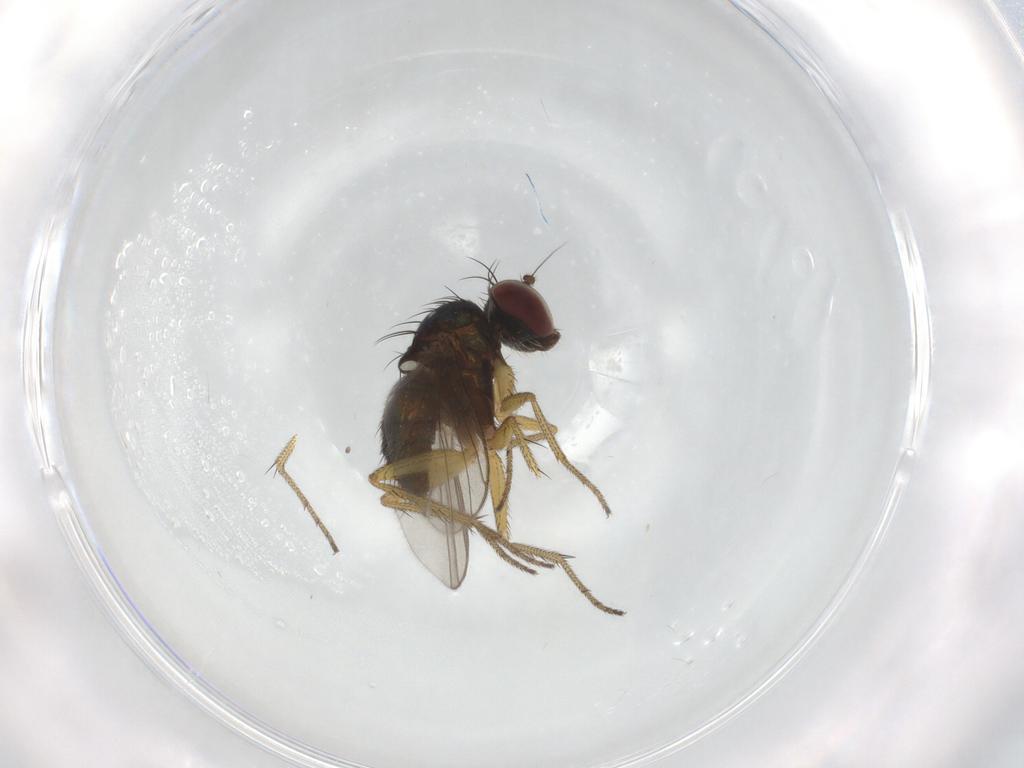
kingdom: Animalia
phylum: Arthropoda
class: Insecta
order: Diptera
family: Dolichopodidae
